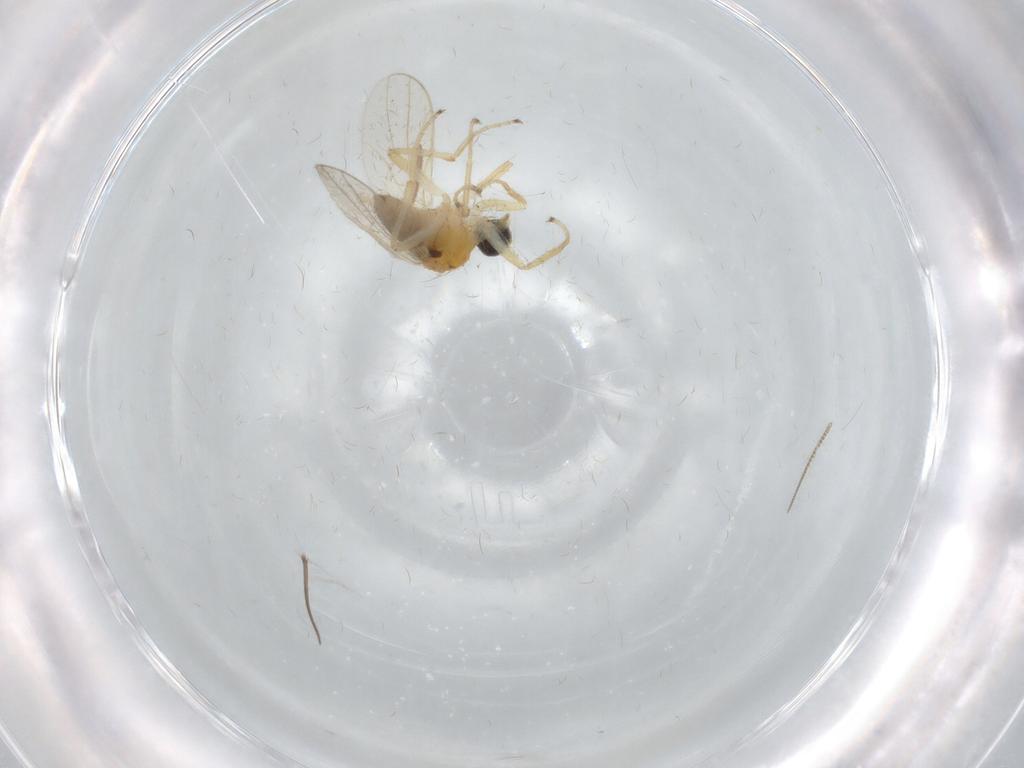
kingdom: Animalia
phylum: Arthropoda
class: Insecta
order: Diptera
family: Hybotidae
